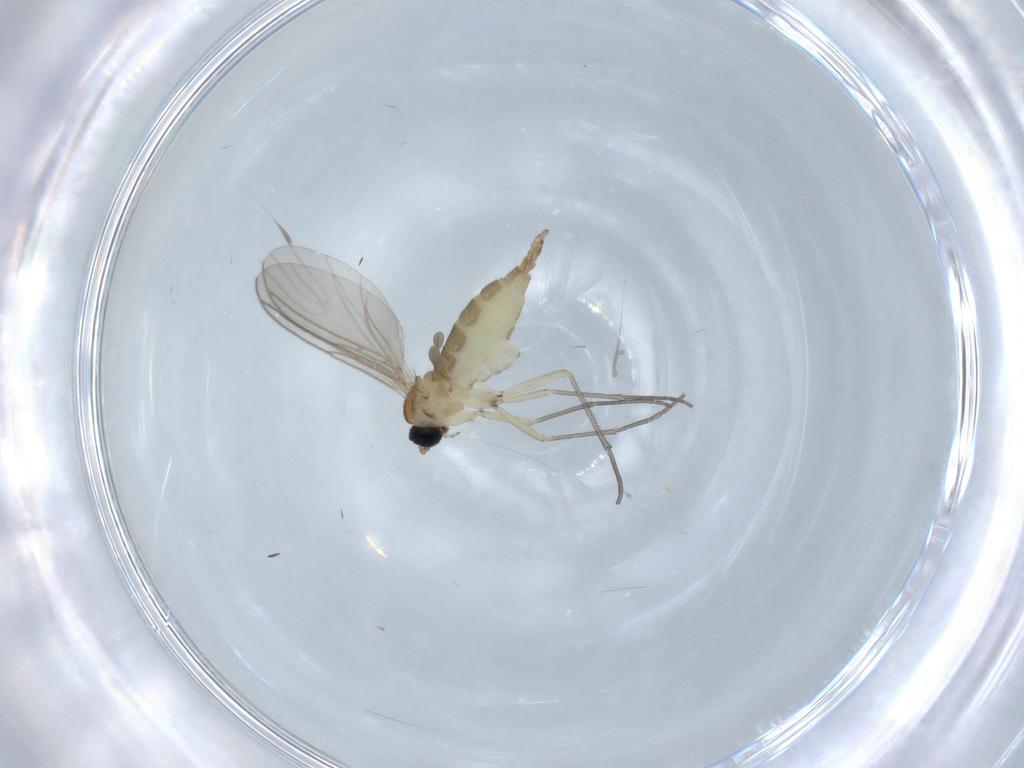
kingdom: Animalia
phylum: Arthropoda
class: Insecta
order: Diptera
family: Sciaridae
